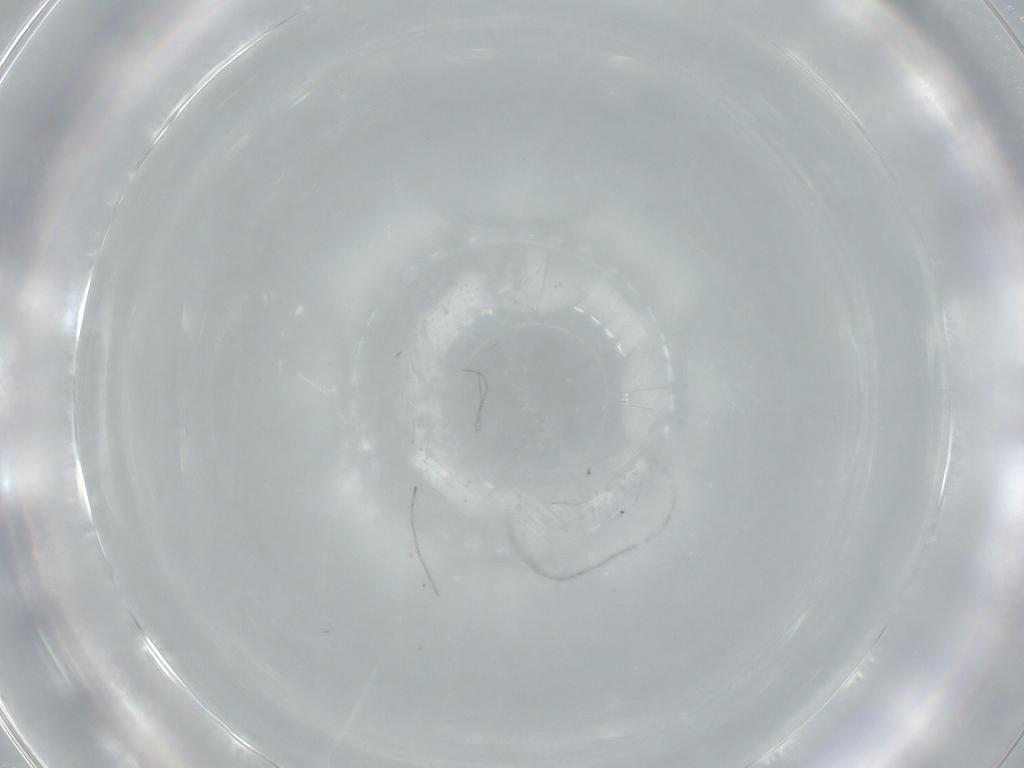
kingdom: Animalia
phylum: Arthropoda
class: Insecta
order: Diptera
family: Chironomidae
